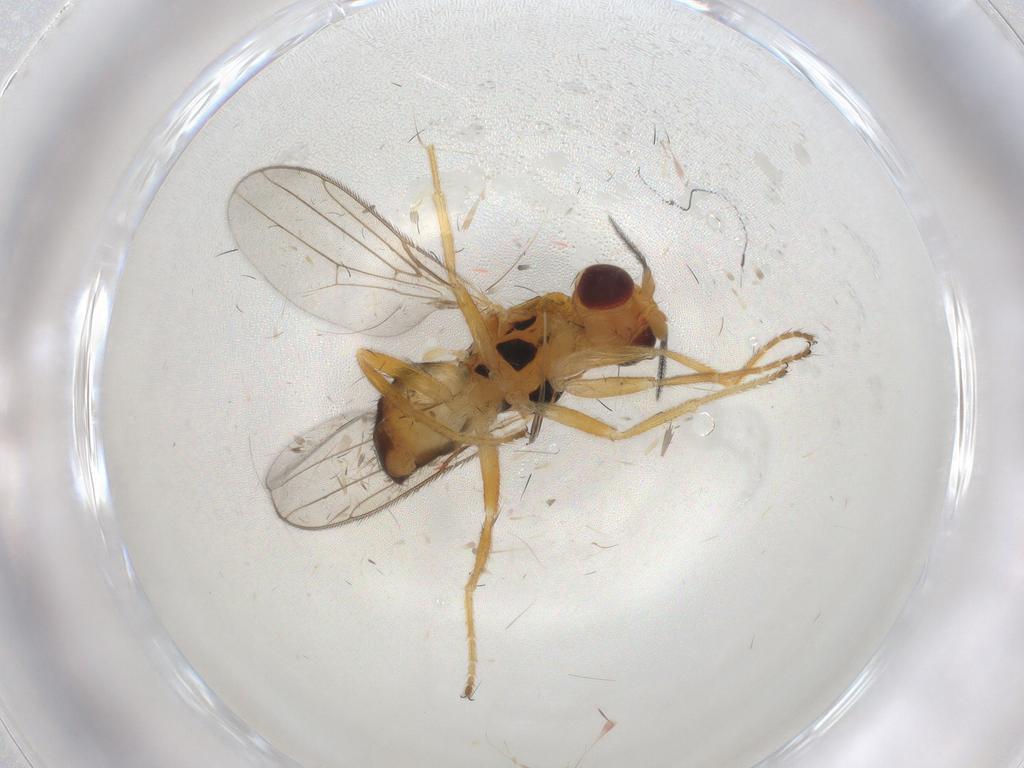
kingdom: Animalia
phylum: Arthropoda
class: Insecta
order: Diptera
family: Chloropidae
